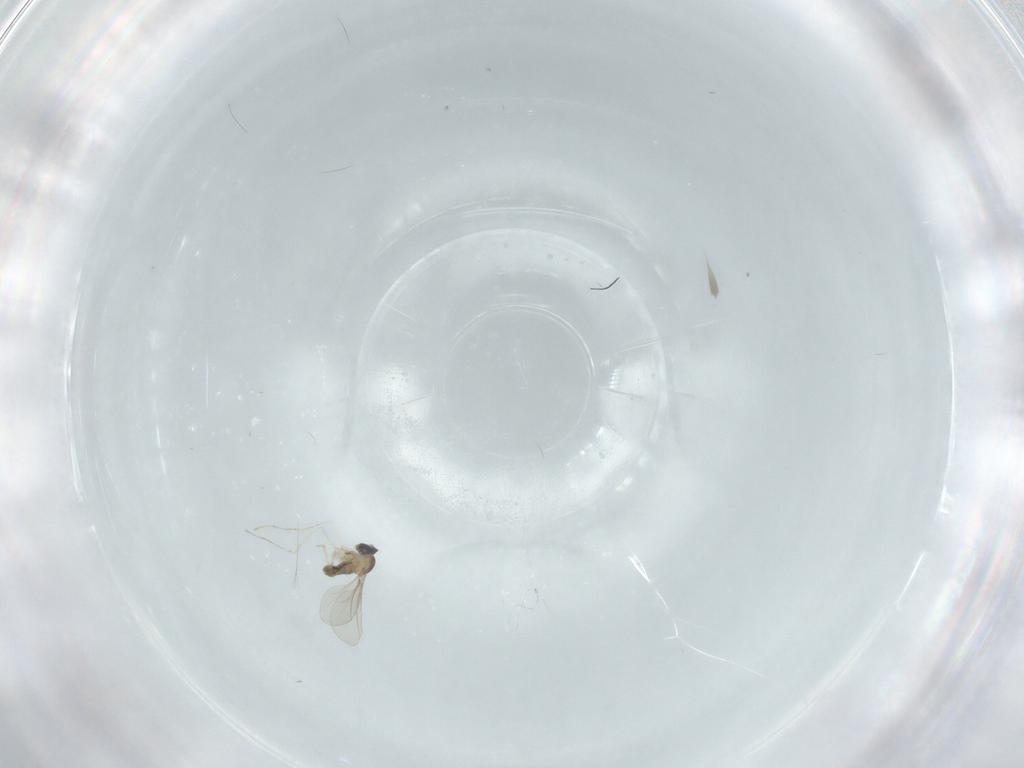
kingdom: Animalia
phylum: Arthropoda
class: Insecta
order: Diptera
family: Cecidomyiidae
